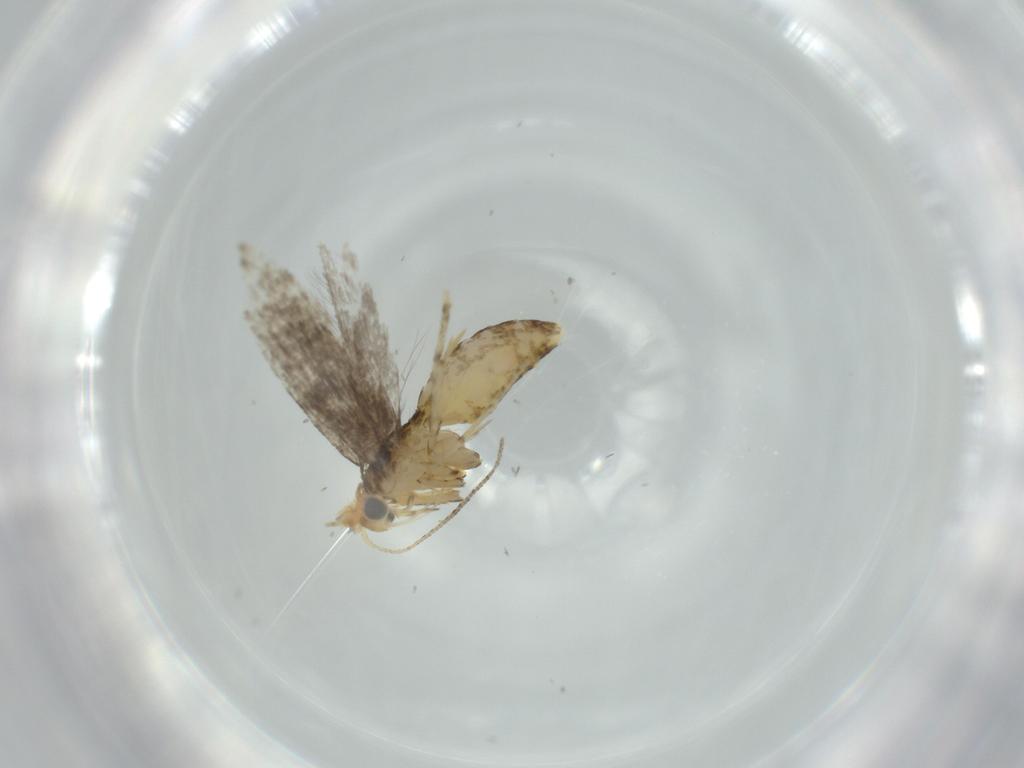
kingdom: Animalia
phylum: Arthropoda
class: Insecta
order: Lepidoptera
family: Argyresthiidae
